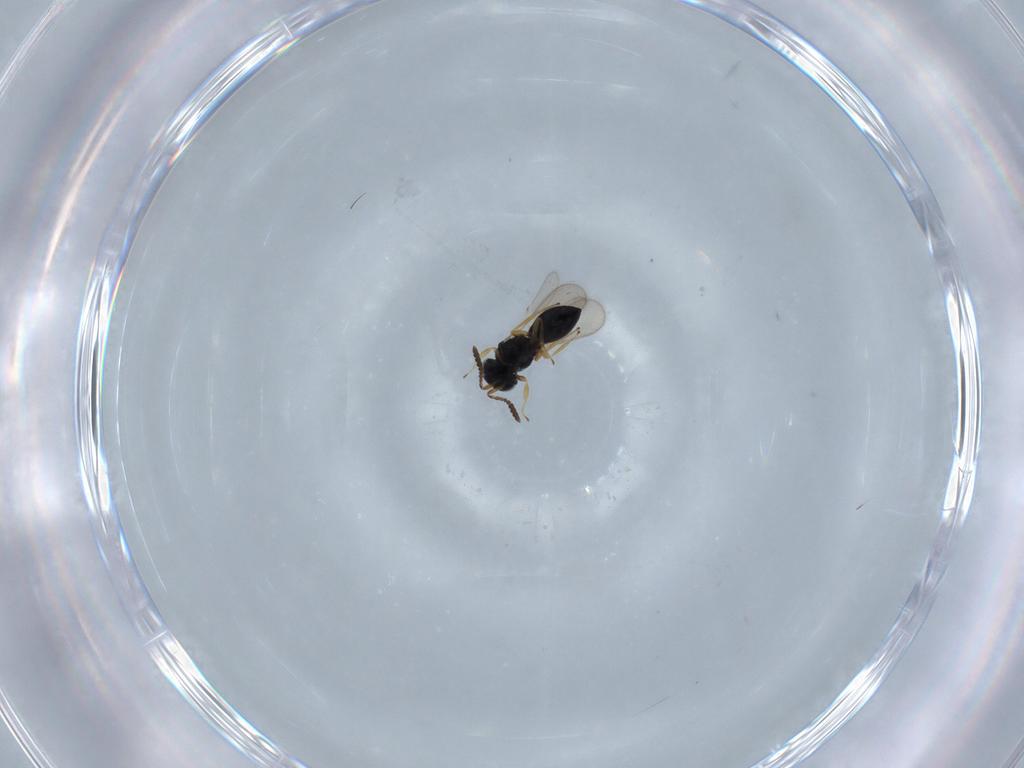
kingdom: Animalia
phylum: Arthropoda
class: Insecta
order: Hymenoptera
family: Scelionidae
